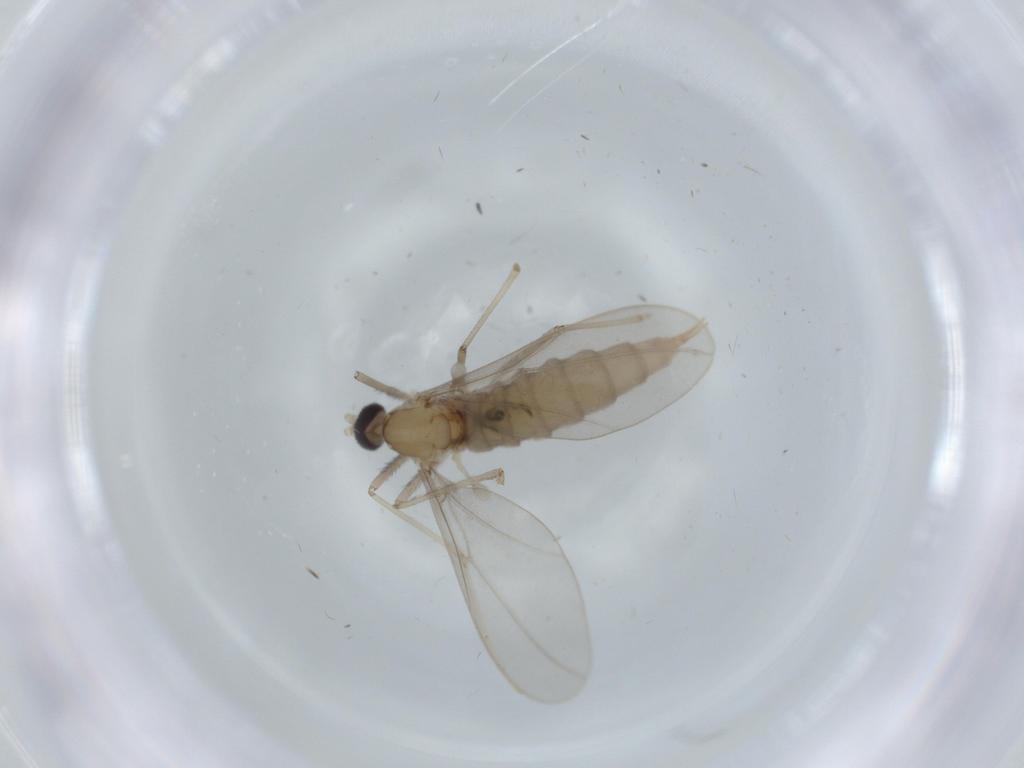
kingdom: Animalia
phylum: Arthropoda
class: Insecta
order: Diptera
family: Cecidomyiidae
